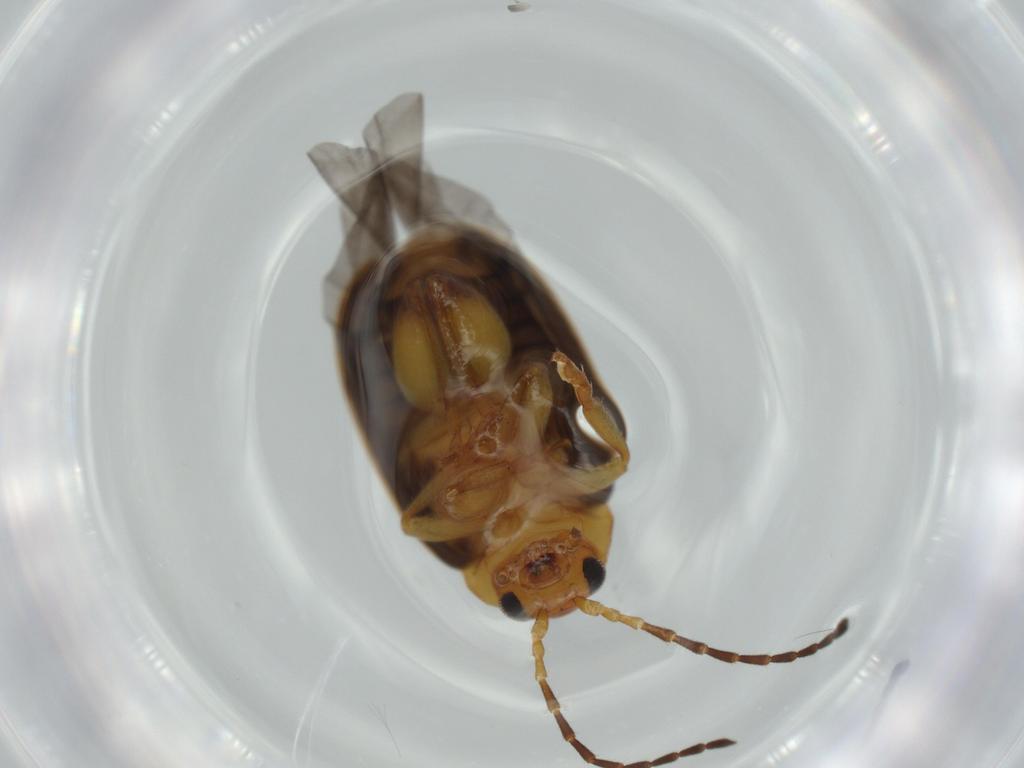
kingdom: Animalia
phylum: Arthropoda
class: Insecta
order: Coleoptera
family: Chrysomelidae
